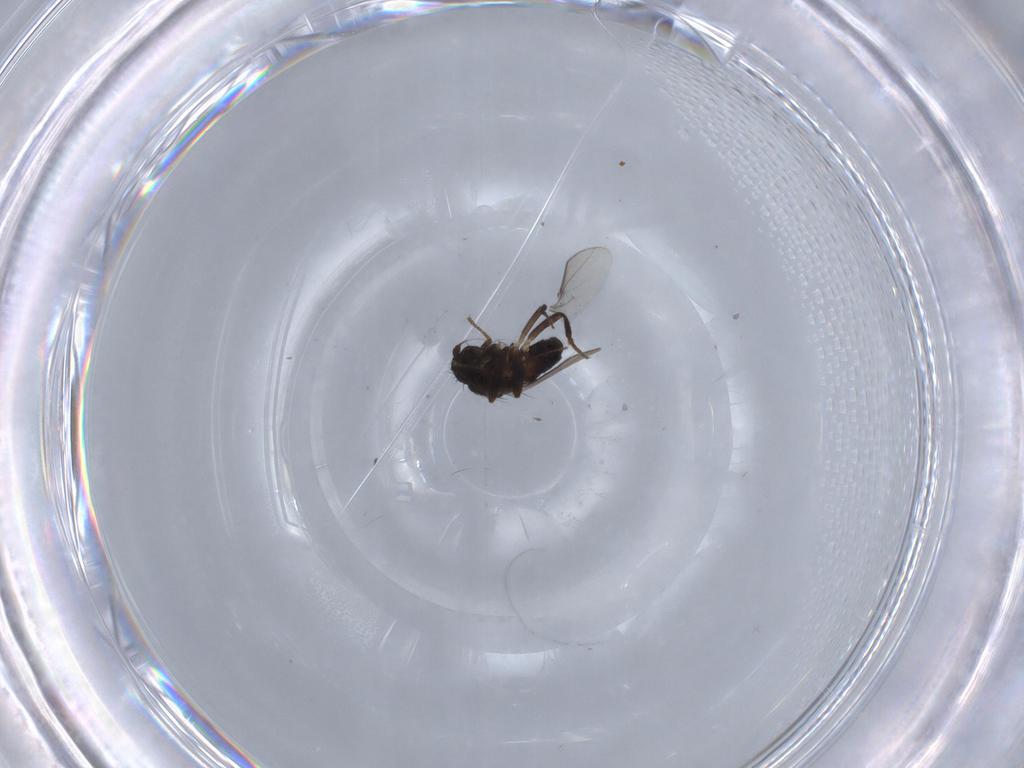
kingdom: Animalia
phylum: Arthropoda
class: Insecta
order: Diptera
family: Sphaeroceridae
